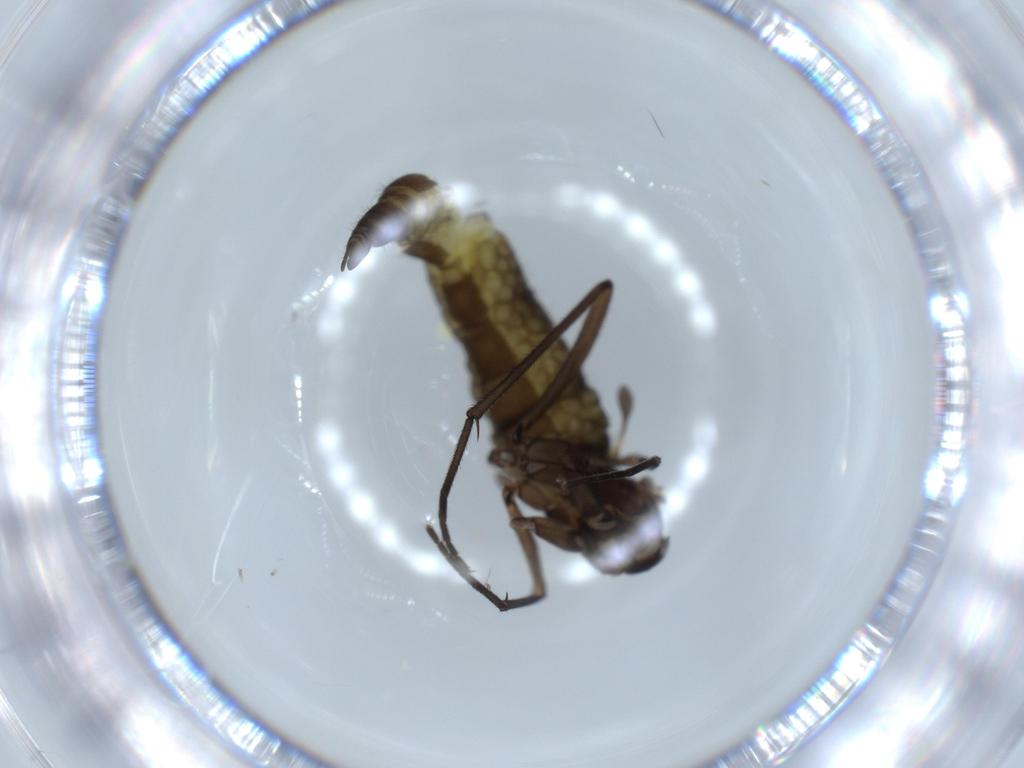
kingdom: Animalia
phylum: Arthropoda
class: Insecta
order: Diptera
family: Sciaridae
